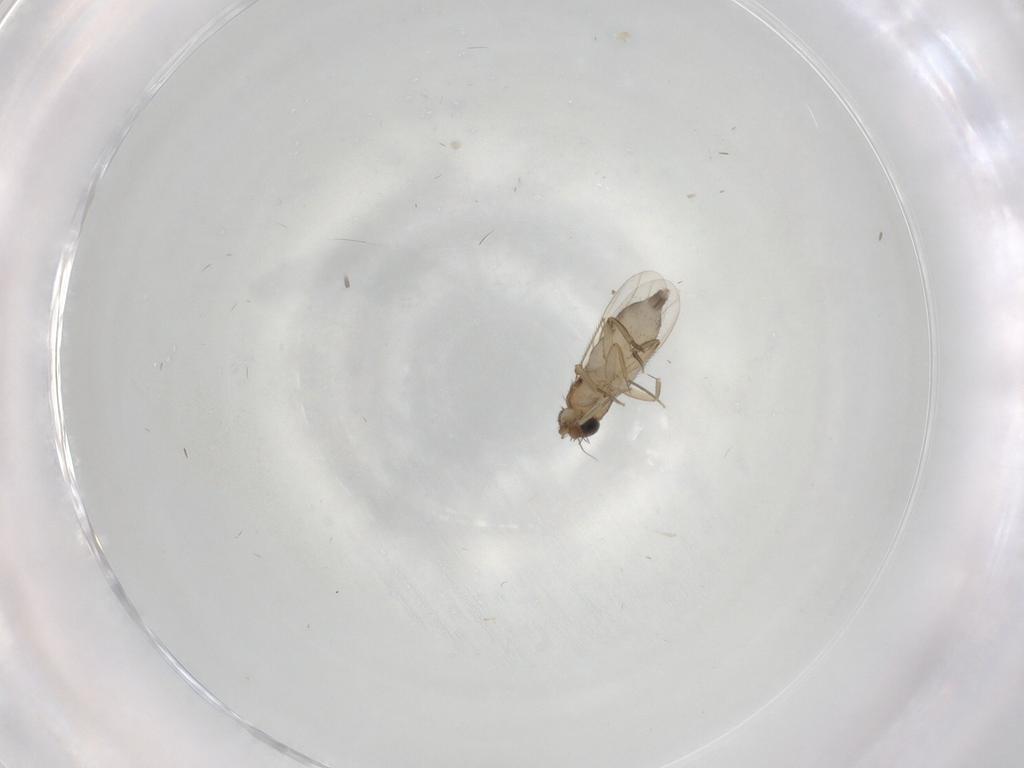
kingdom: Animalia
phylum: Arthropoda
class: Insecta
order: Diptera
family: Phoridae
